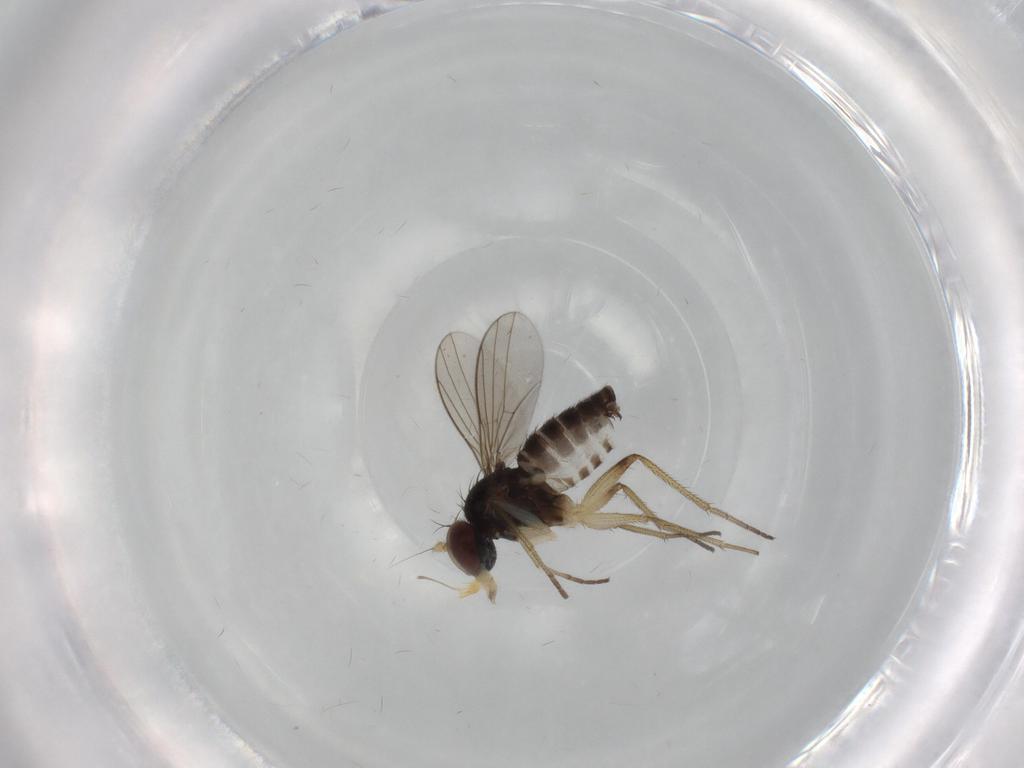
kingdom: Animalia
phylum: Arthropoda
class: Insecta
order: Diptera
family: Dolichopodidae
